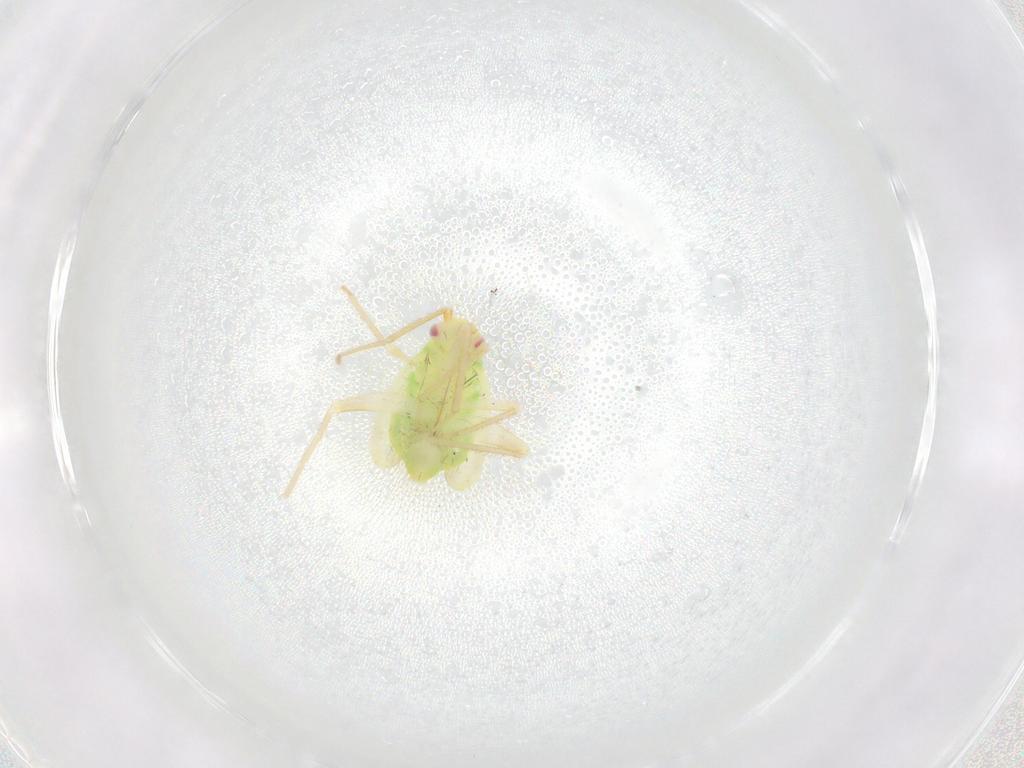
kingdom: Animalia
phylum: Arthropoda
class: Insecta
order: Hemiptera
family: Miridae
